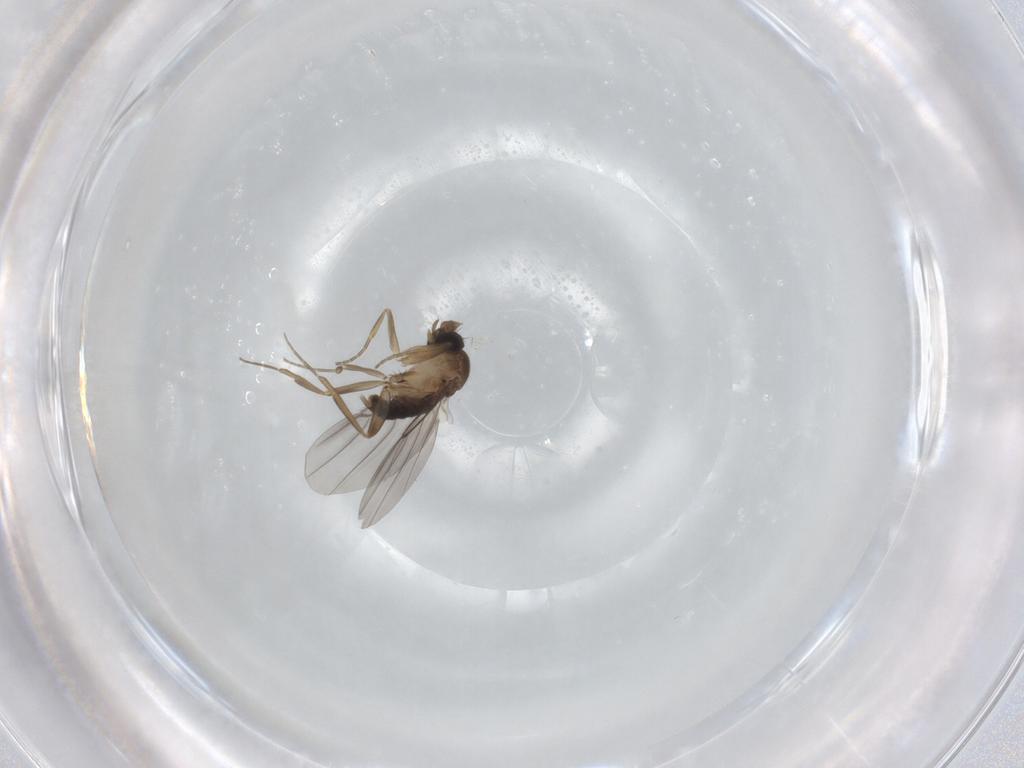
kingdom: Animalia
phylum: Arthropoda
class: Insecta
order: Diptera
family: Phoridae
